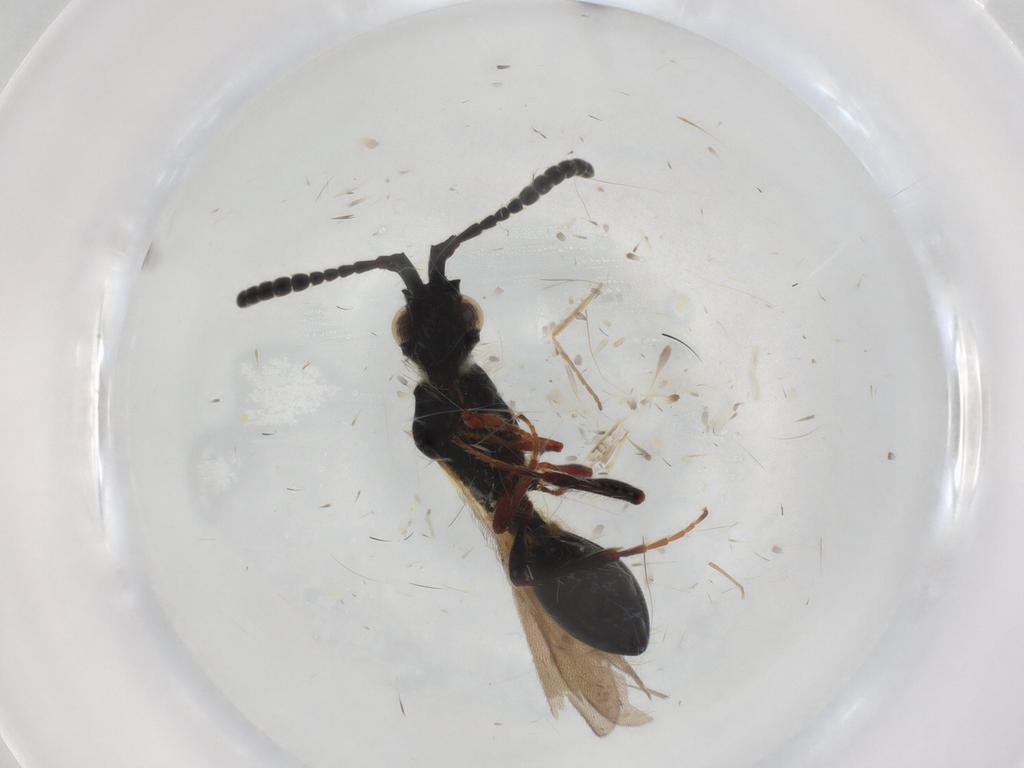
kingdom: Animalia
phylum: Arthropoda
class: Insecta
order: Hymenoptera
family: Diapriidae
